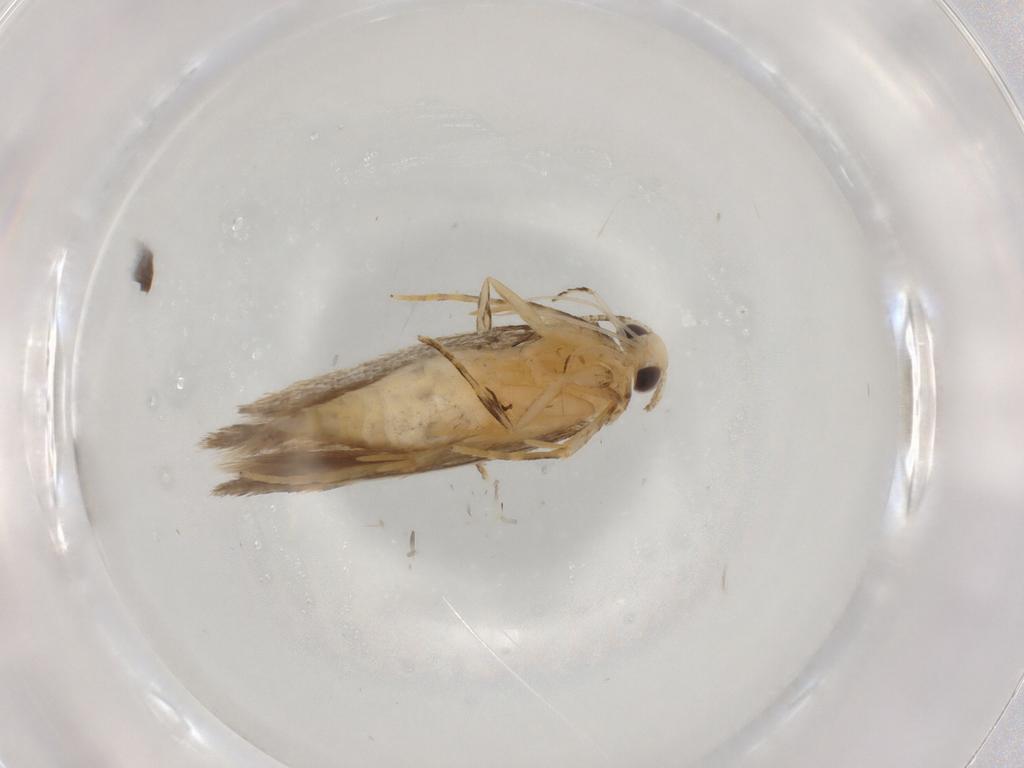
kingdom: Animalia
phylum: Arthropoda
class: Insecta
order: Lepidoptera
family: Autostichidae
